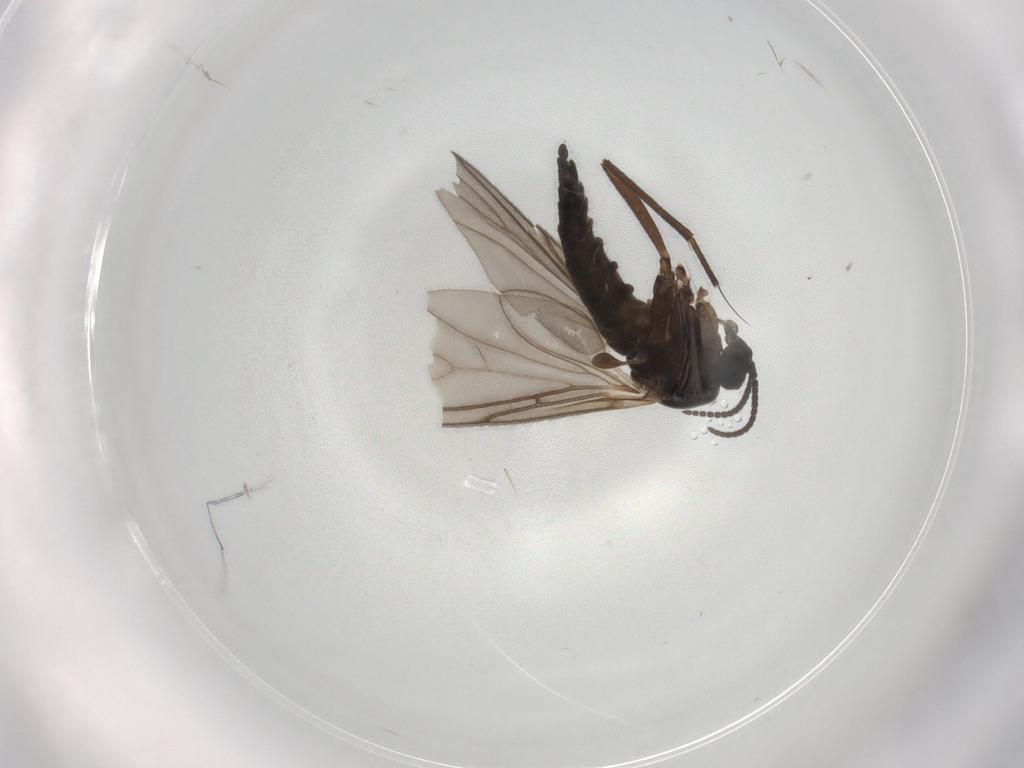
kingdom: Animalia
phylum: Arthropoda
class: Insecta
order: Diptera
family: Sciaridae
